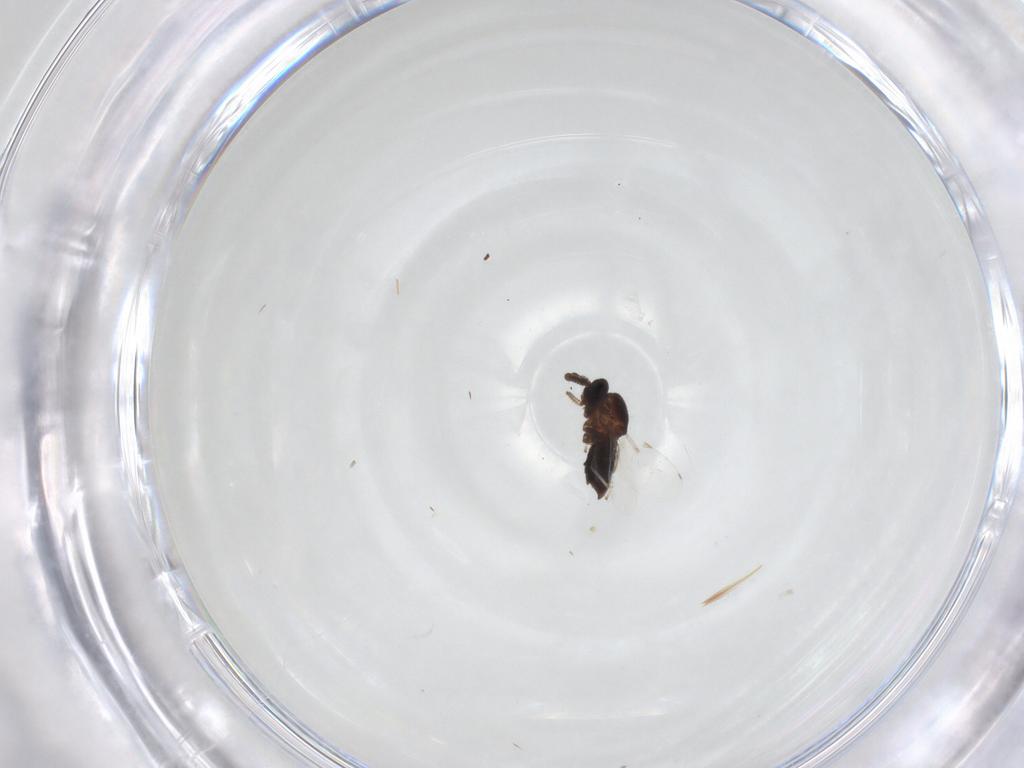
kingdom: Animalia
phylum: Arthropoda
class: Insecta
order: Diptera
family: Scatopsidae
